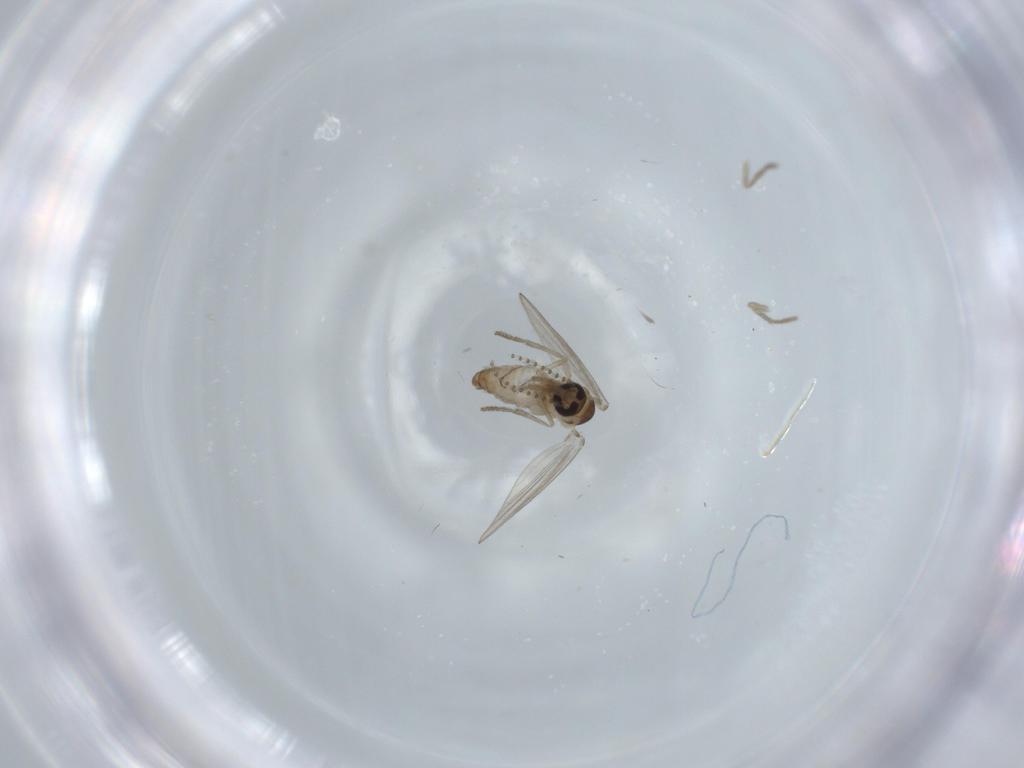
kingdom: Animalia
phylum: Arthropoda
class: Insecta
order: Diptera
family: Psychodidae
